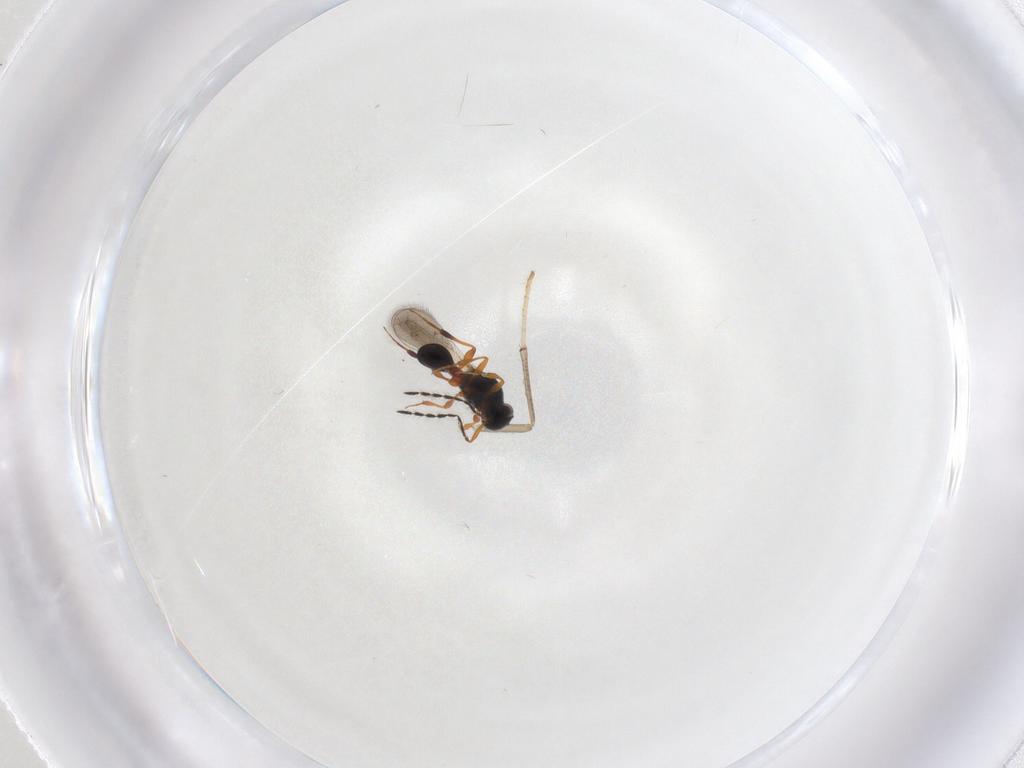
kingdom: Animalia
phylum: Arthropoda
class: Insecta
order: Hymenoptera
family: Platygastridae
